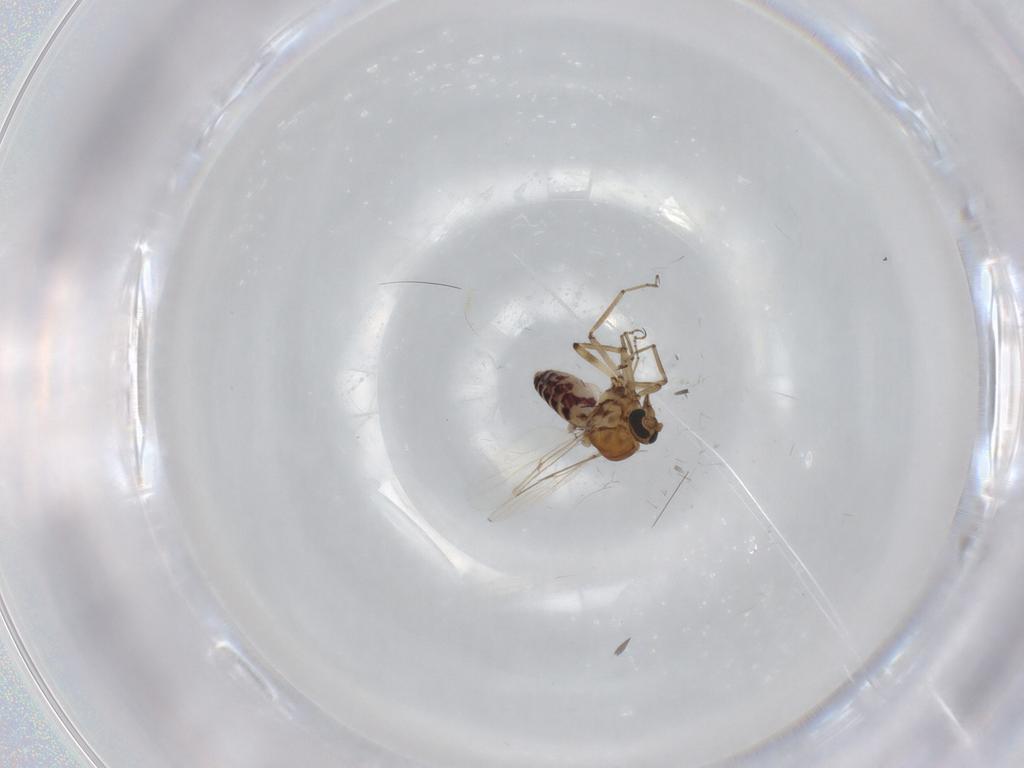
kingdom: Animalia
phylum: Arthropoda
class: Insecta
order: Diptera
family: Ceratopogonidae
